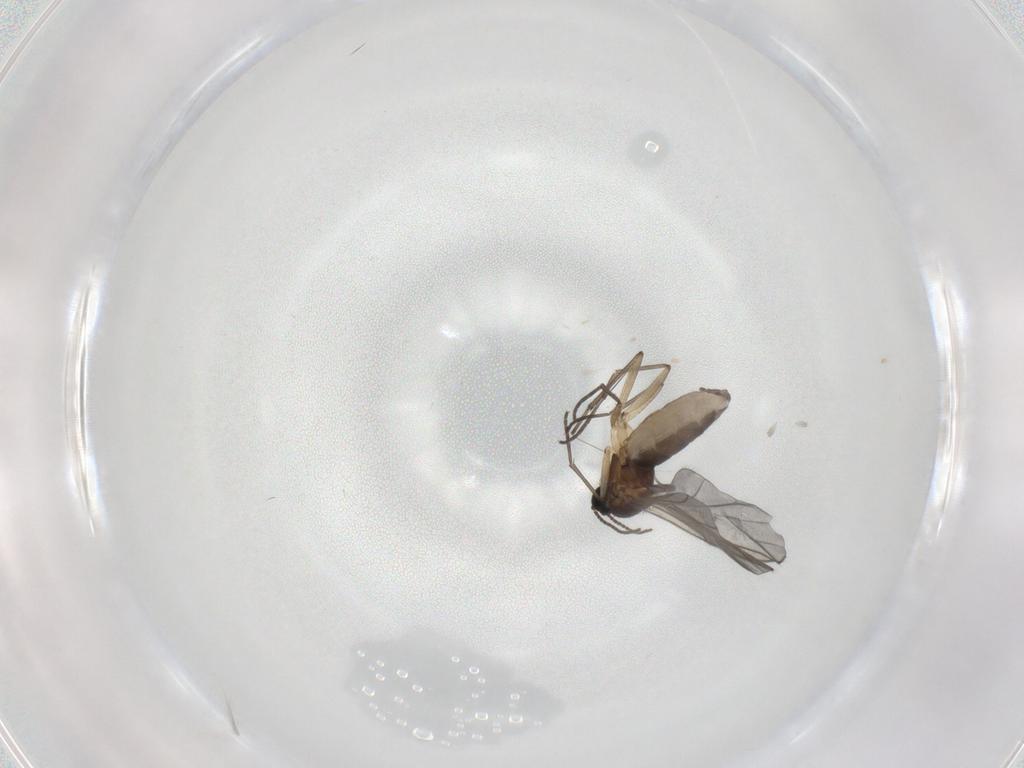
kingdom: Animalia
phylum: Arthropoda
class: Insecta
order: Diptera
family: Sciaridae
